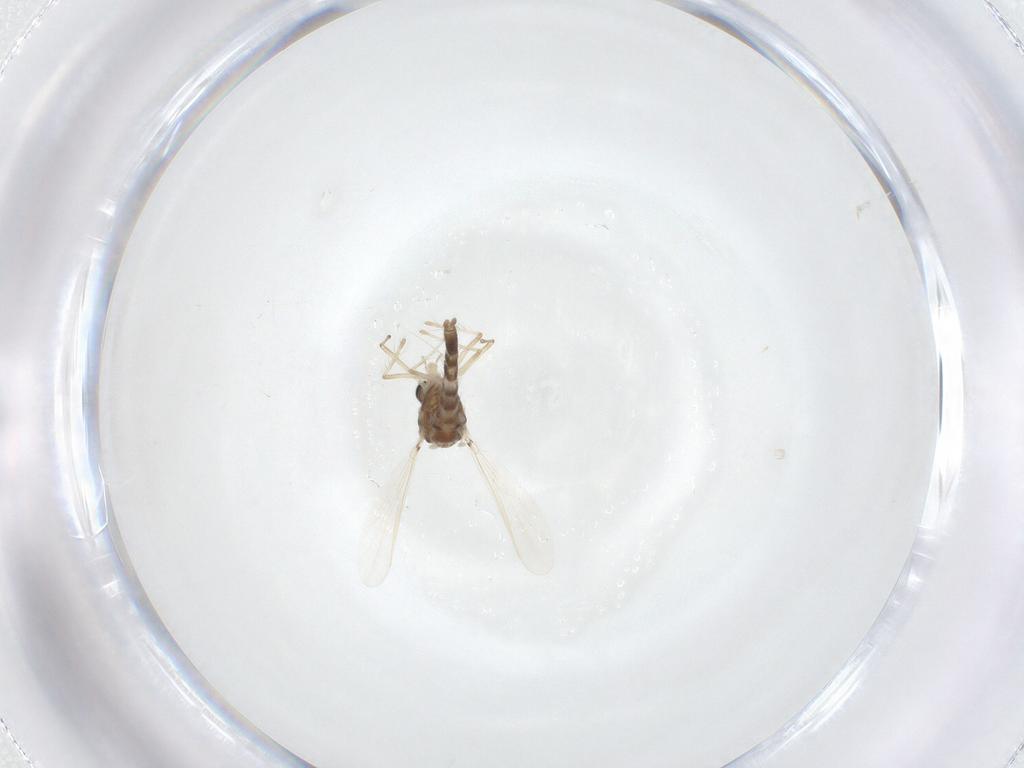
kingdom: Animalia
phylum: Arthropoda
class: Insecta
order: Diptera
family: Chironomidae
